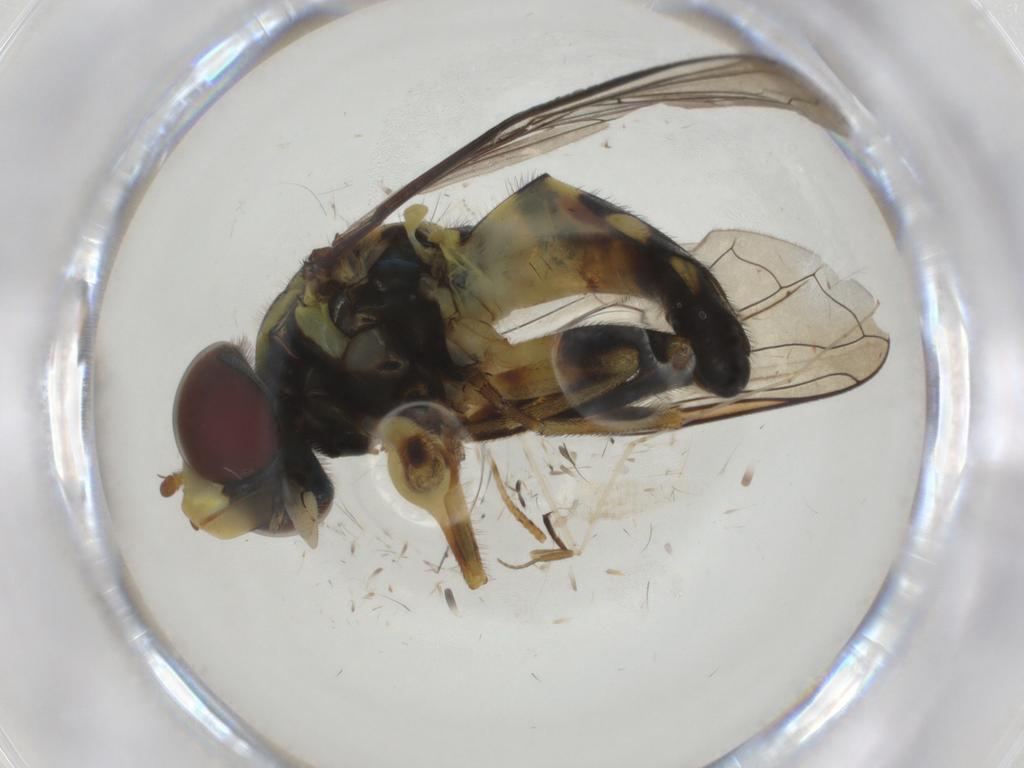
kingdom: Animalia
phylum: Arthropoda
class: Insecta
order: Diptera
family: Syrphidae
